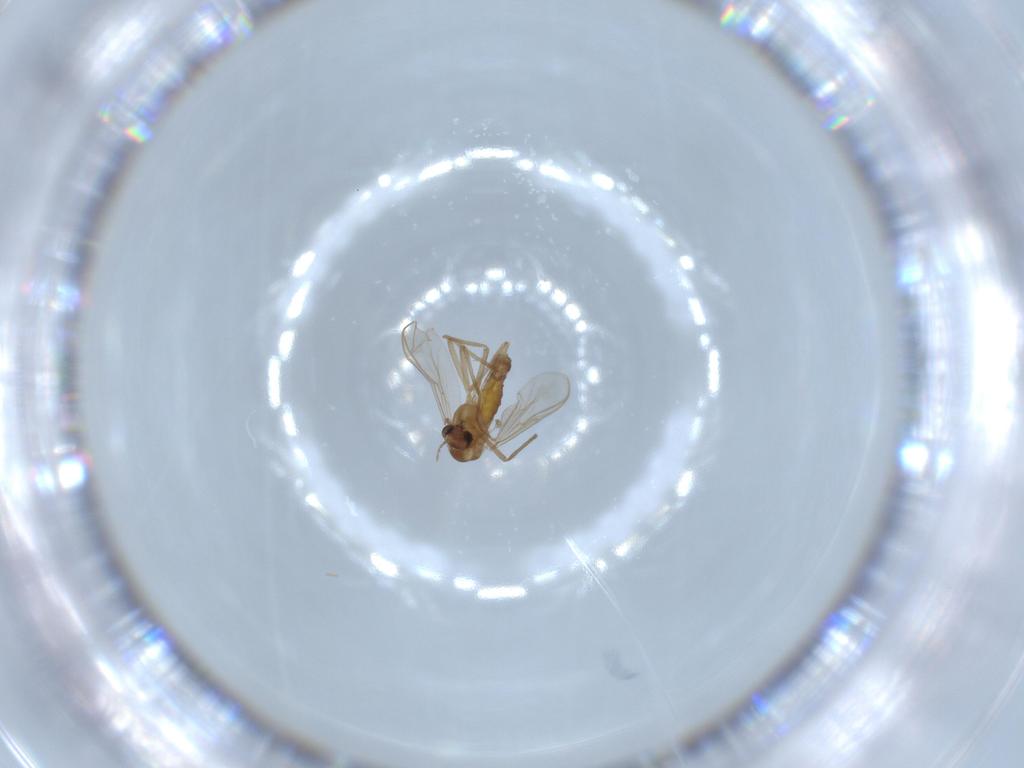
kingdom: Animalia
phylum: Arthropoda
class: Insecta
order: Diptera
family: Chironomidae
